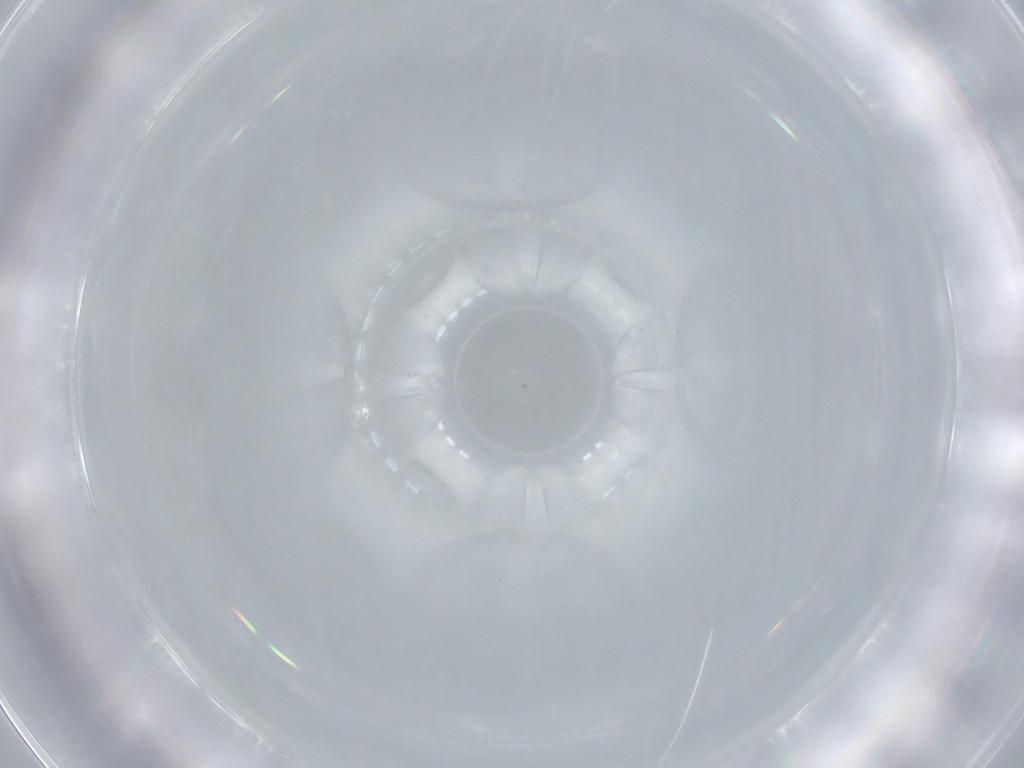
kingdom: Animalia
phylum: Arthropoda
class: Insecta
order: Diptera
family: Cecidomyiidae
